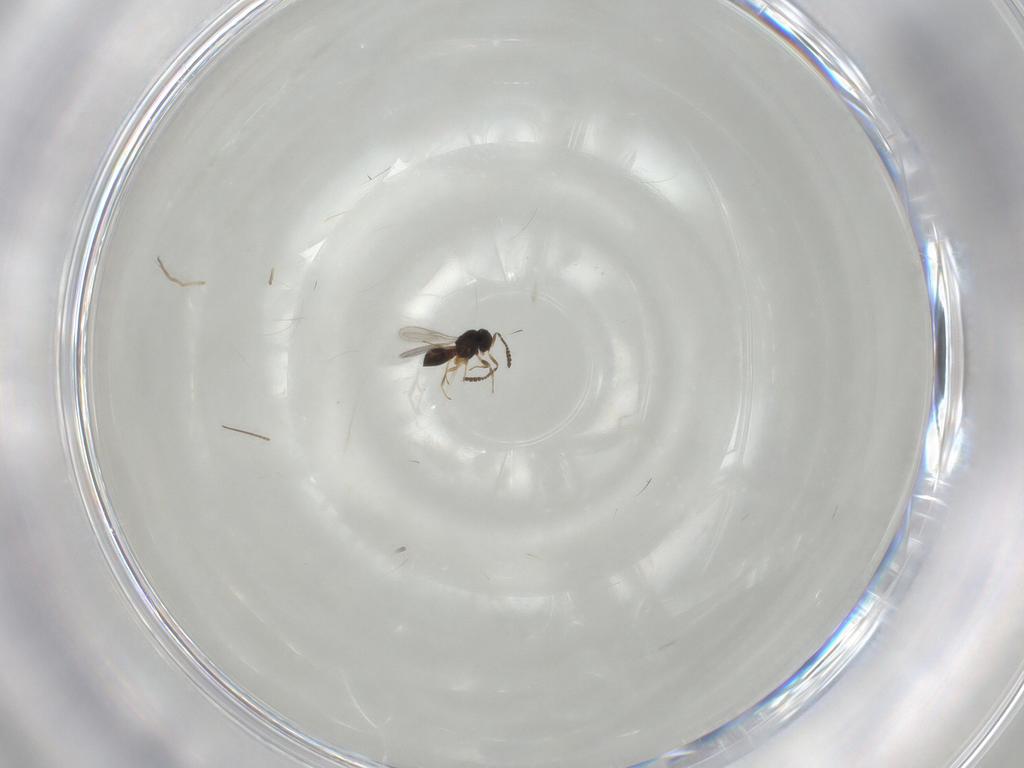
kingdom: Animalia
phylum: Arthropoda
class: Insecta
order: Hymenoptera
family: Scelionidae
